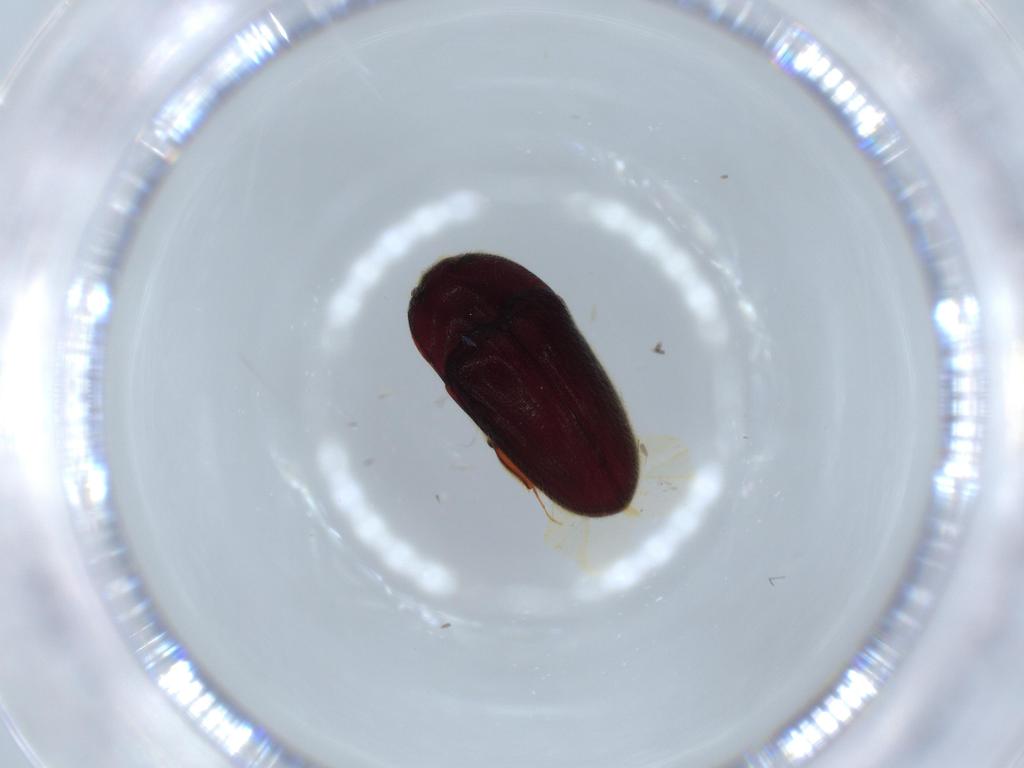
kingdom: Animalia
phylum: Arthropoda
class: Insecta
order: Coleoptera
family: Throscidae
